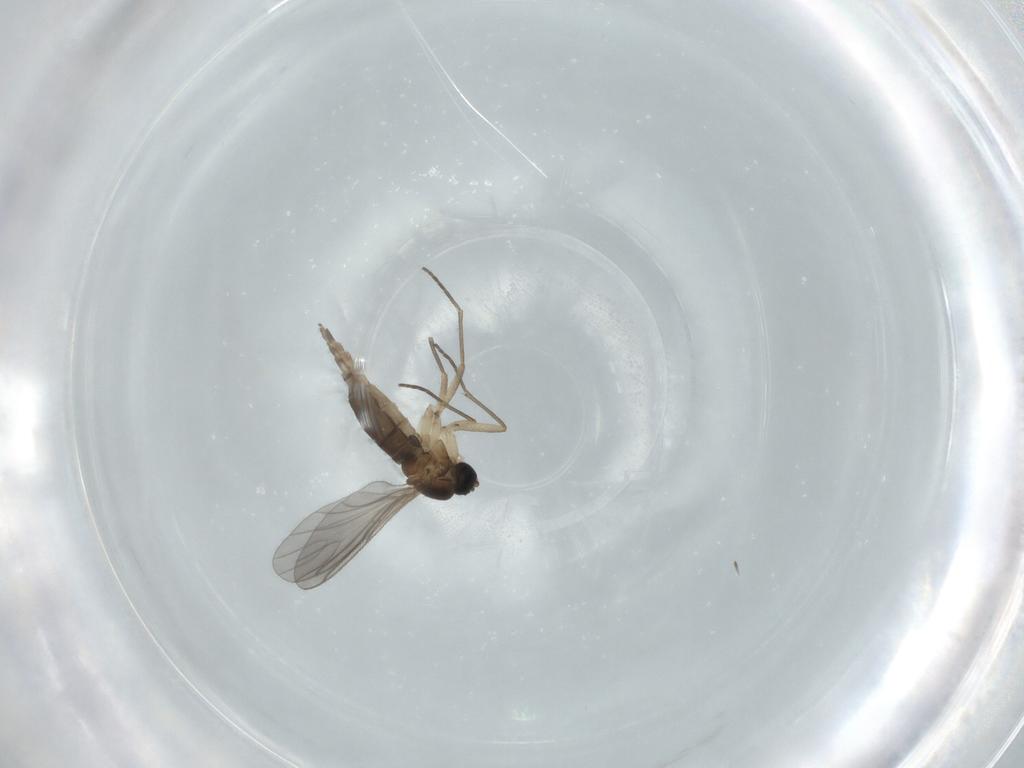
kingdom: Animalia
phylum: Arthropoda
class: Insecta
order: Diptera
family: Sciaridae
